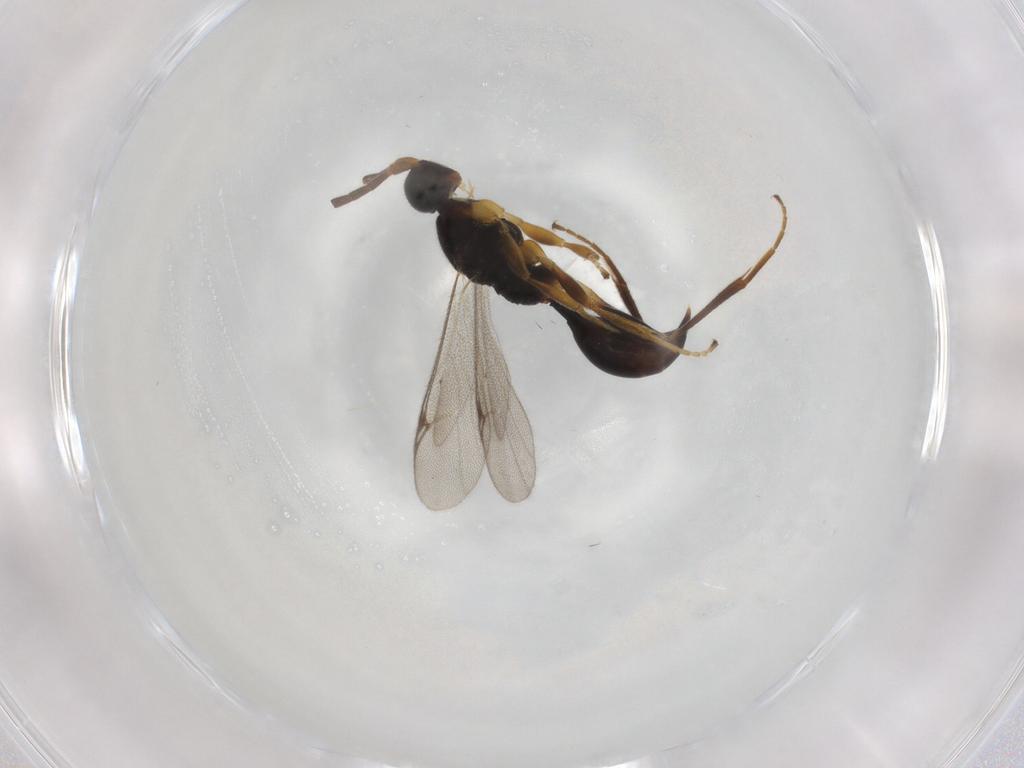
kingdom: Animalia
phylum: Arthropoda
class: Insecta
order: Hymenoptera
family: Proctotrupidae
